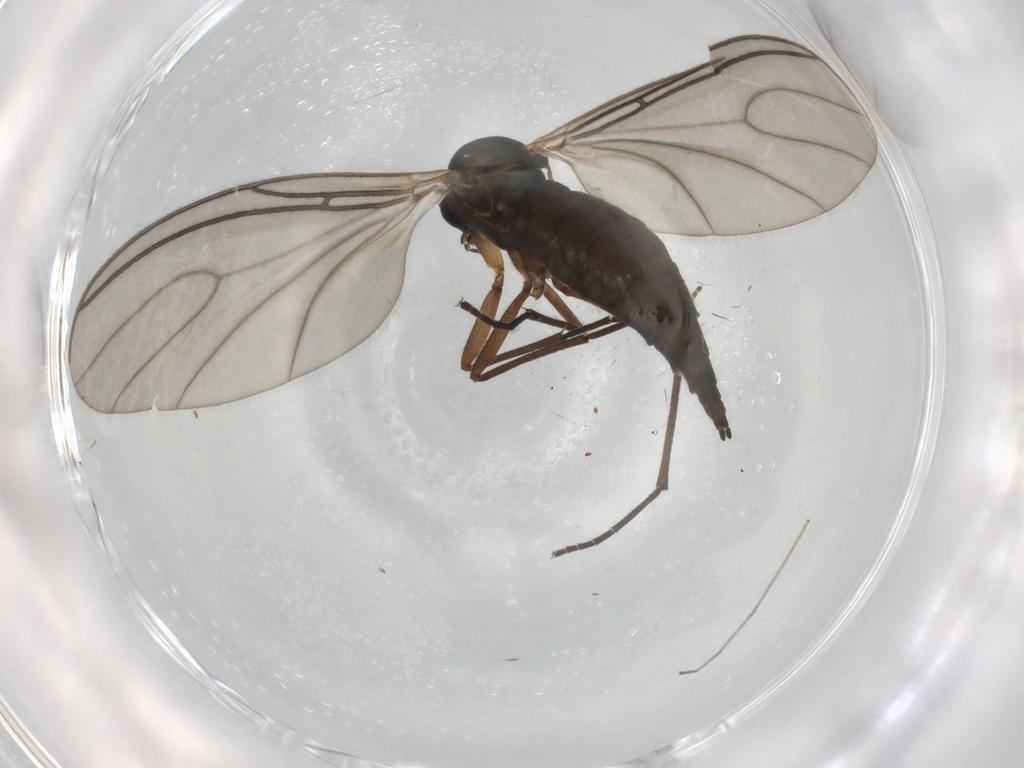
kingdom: Animalia
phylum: Arthropoda
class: Insecta
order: Diptera
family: Sciaridae
